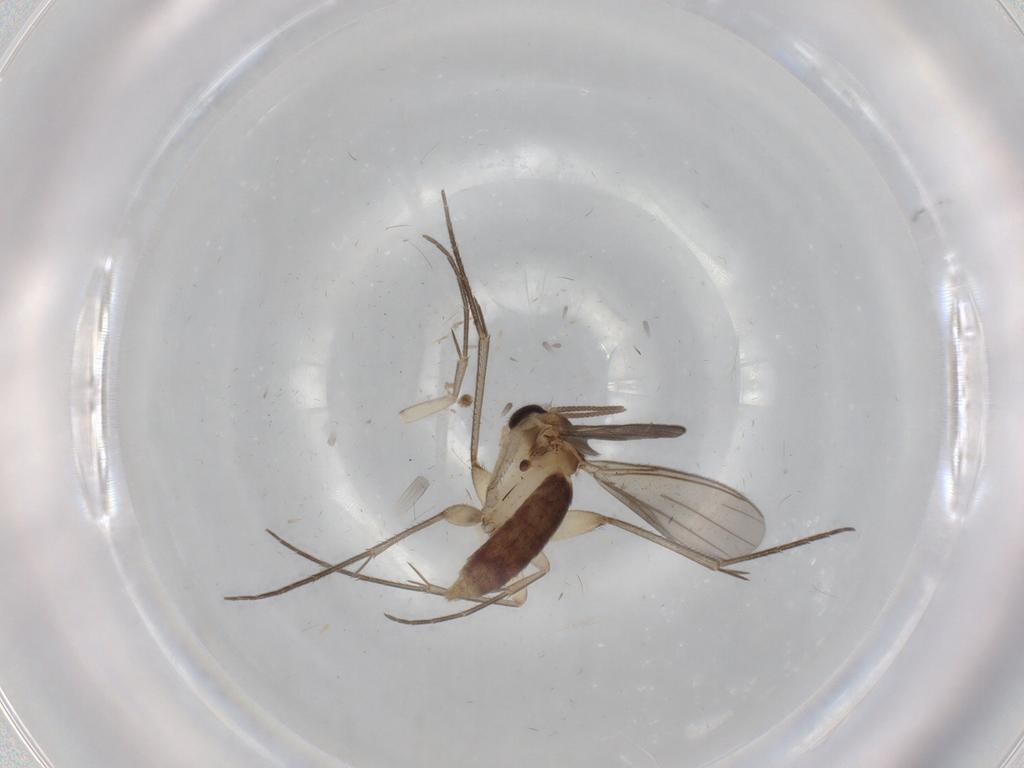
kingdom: Animalia
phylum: Arthropoda
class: Insecta
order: Diptera
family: Mycetophilidae
